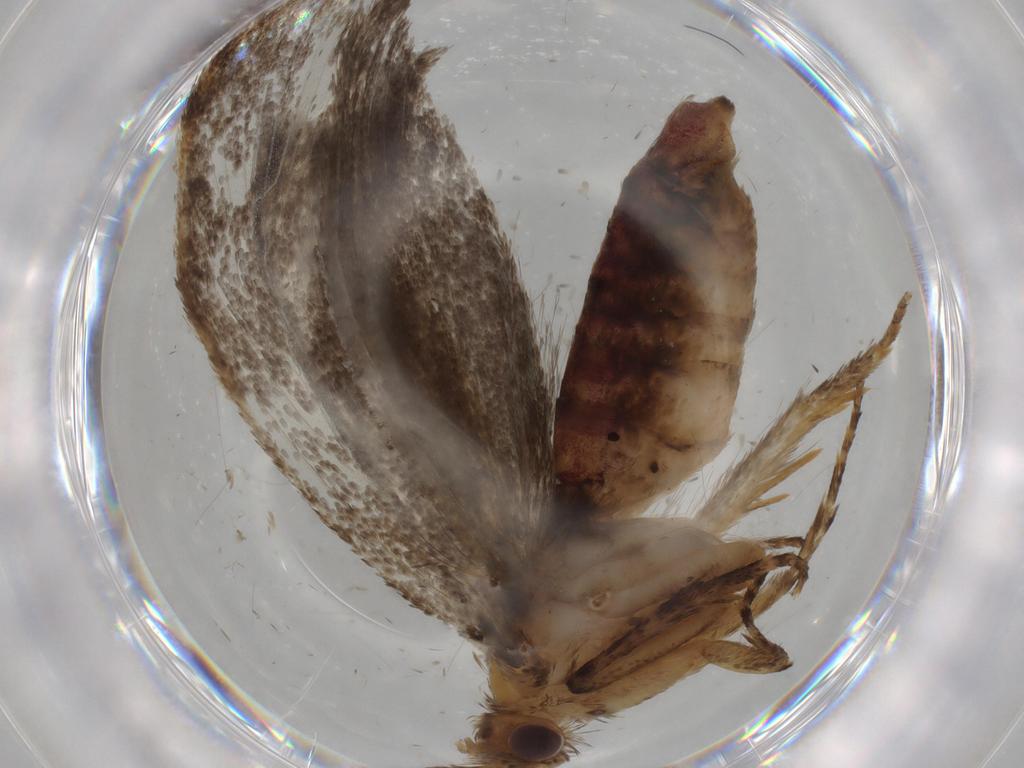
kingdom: Animalia
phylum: Arthropoda
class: Insecta
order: Lepidoptera
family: Tineidae
